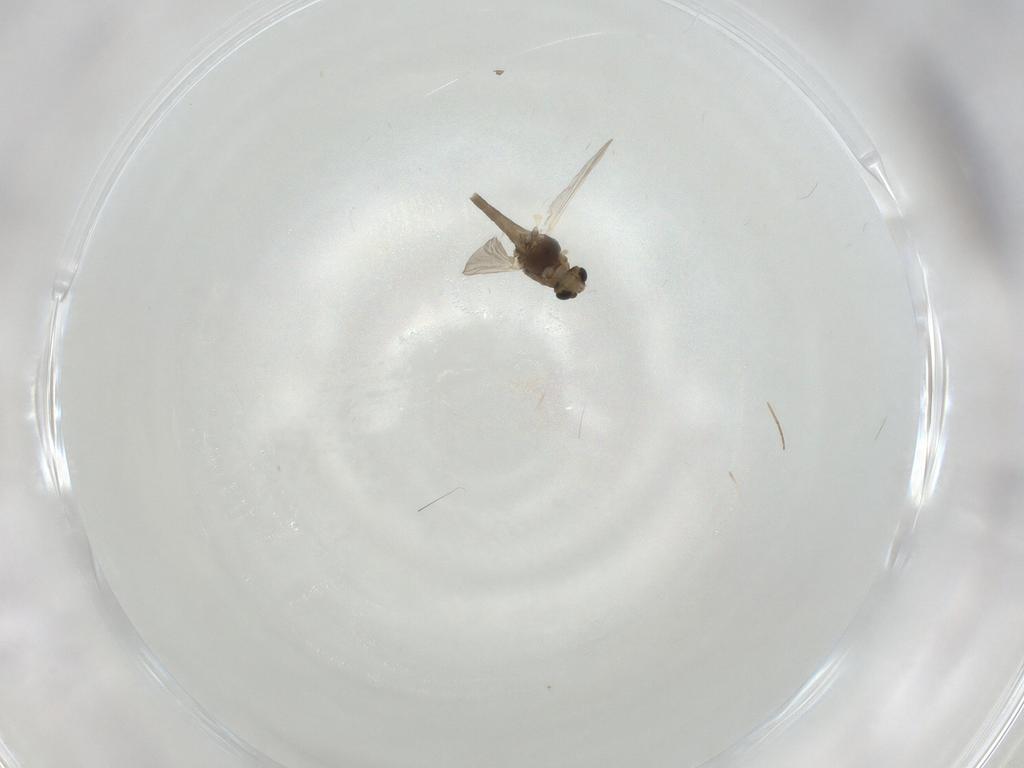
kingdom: Animalia
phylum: Arthropoda
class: Insecta
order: Diptera
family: Chironomidae
